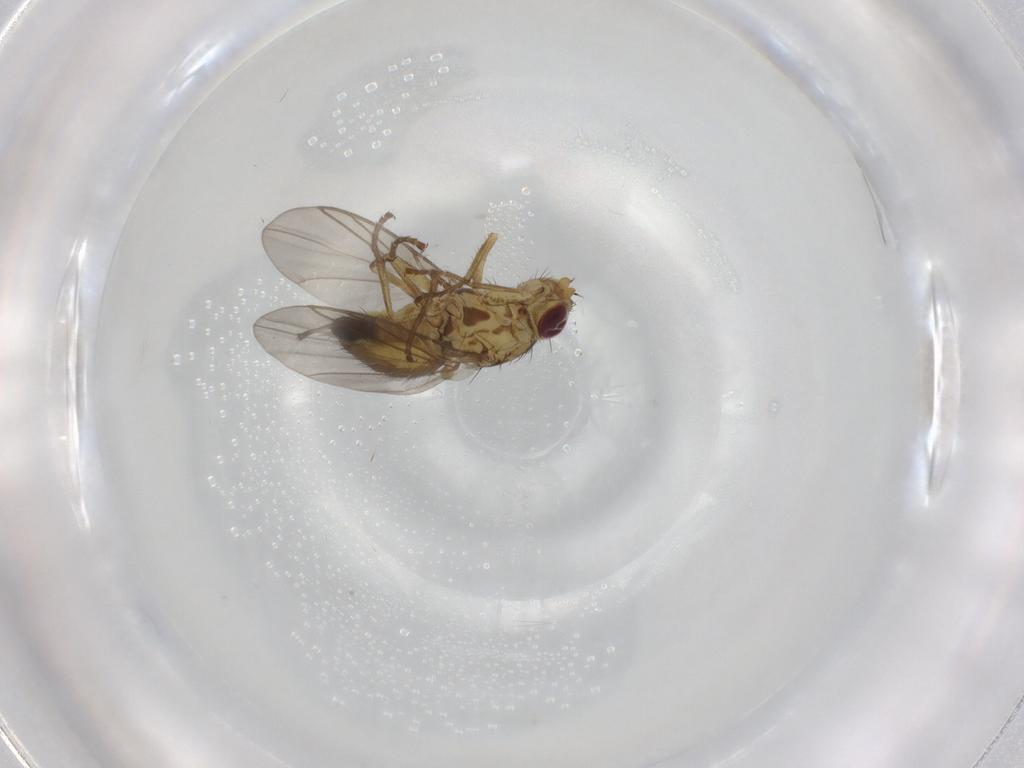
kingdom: Animalia
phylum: Arthropoda
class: Insecta
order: Diptera
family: Agromyzidae
